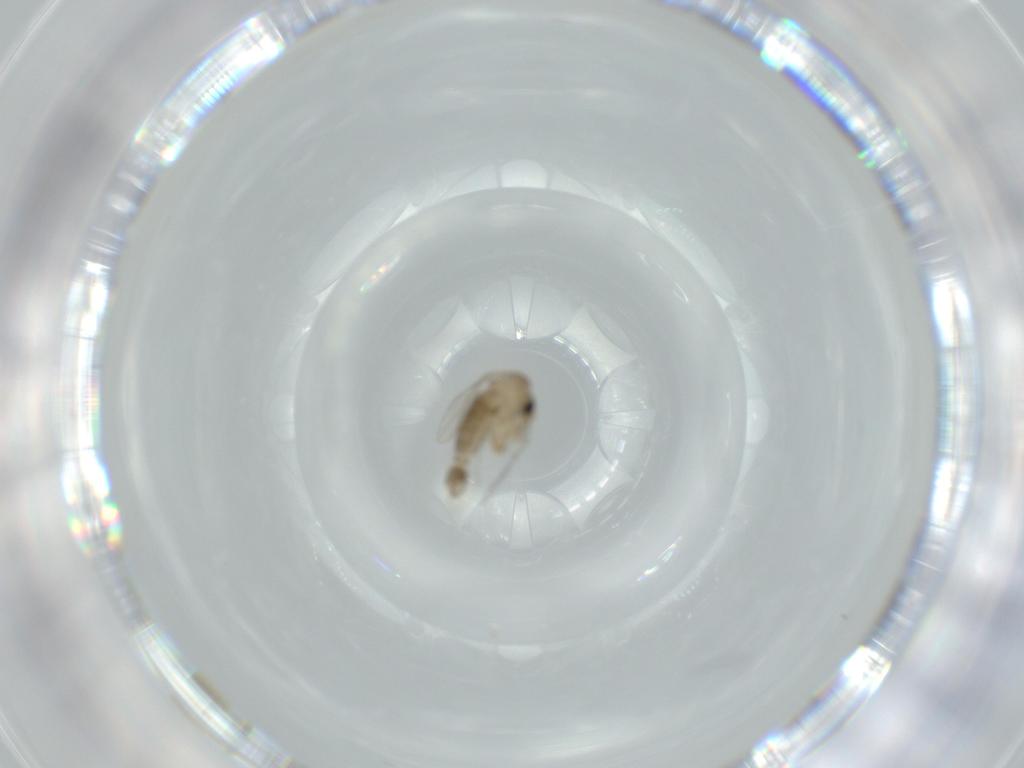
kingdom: Animalia
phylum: Arthropoda
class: Insecta
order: Diptera
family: Psychodidae
